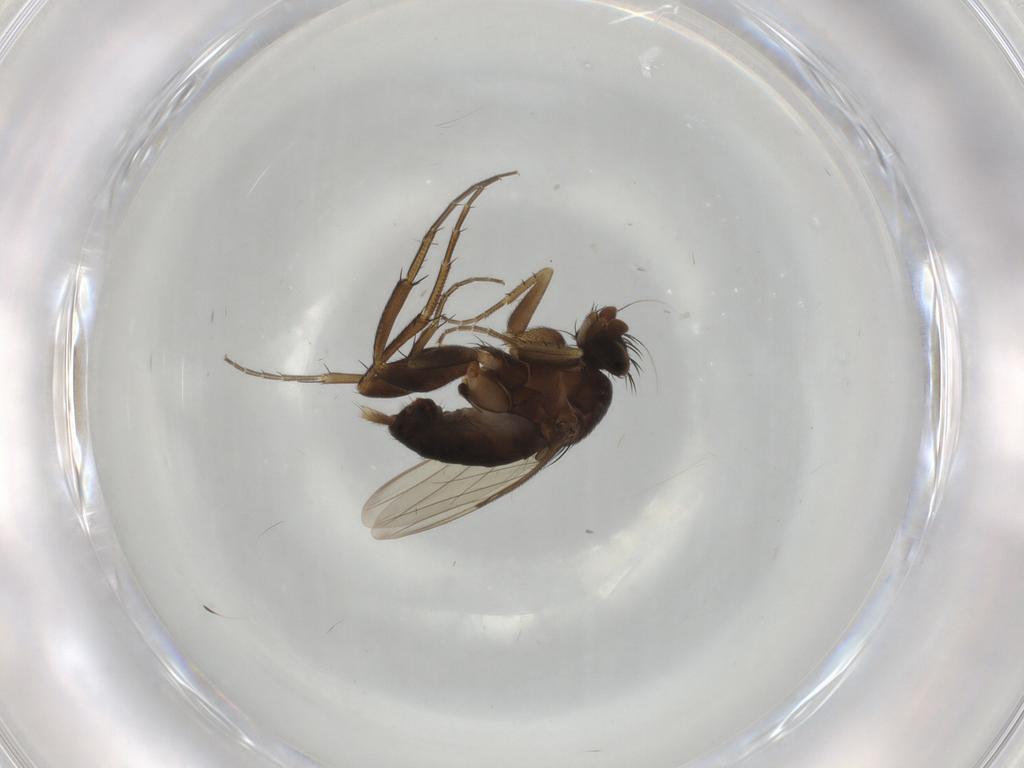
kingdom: Animalia
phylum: Arthropoda
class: Insecta
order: Diptera
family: Phoridae
